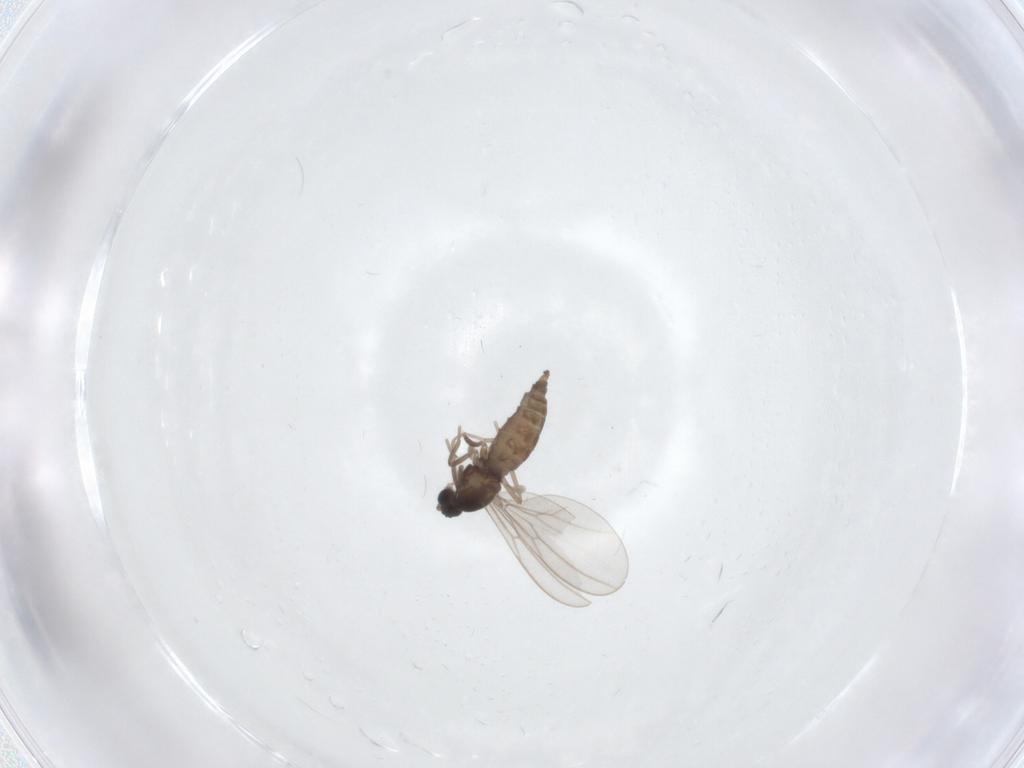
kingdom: Animalia
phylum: Arthropoda
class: Insecta
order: Diptera
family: Cecidomyiidae
